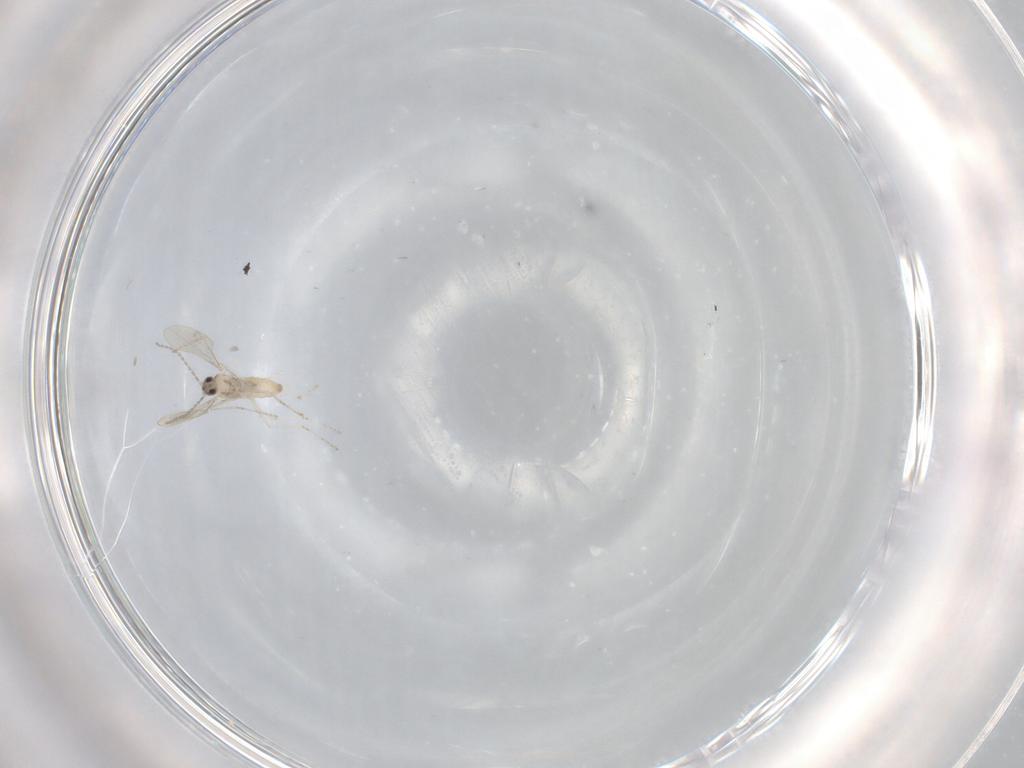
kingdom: Animalia
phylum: Arthropoda
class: Insecta
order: Diptera
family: Cecidomyiidae
